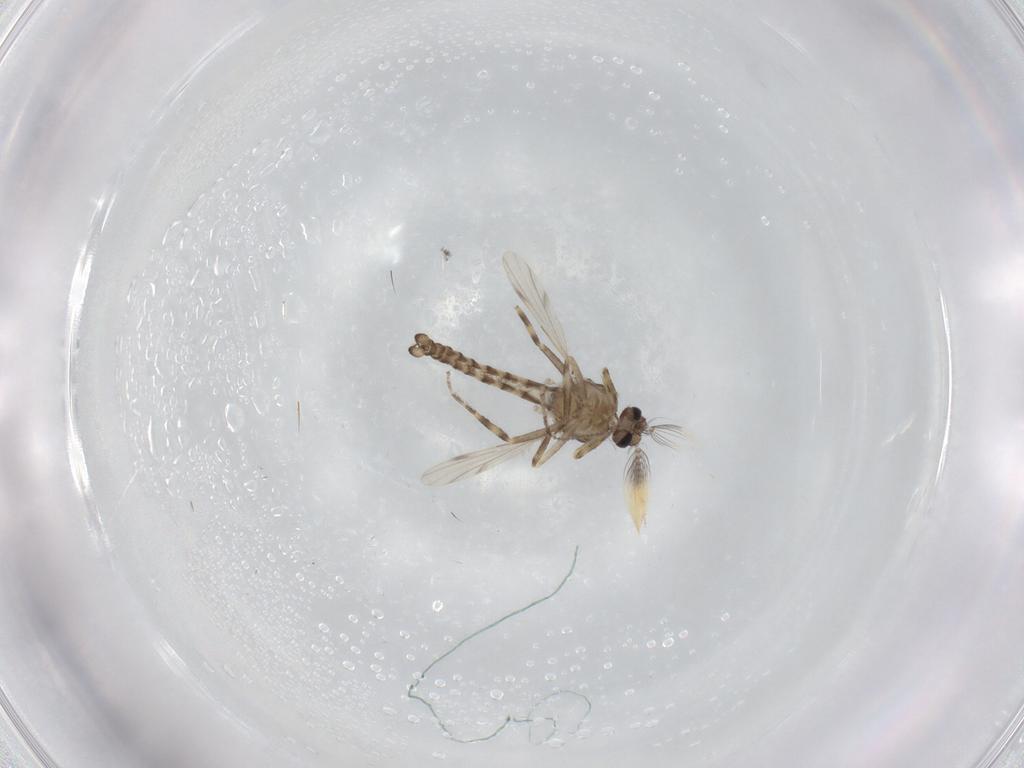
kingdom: Animalia
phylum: Arthropoda
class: Insecta
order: Diptera
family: Ceratopogonidae
